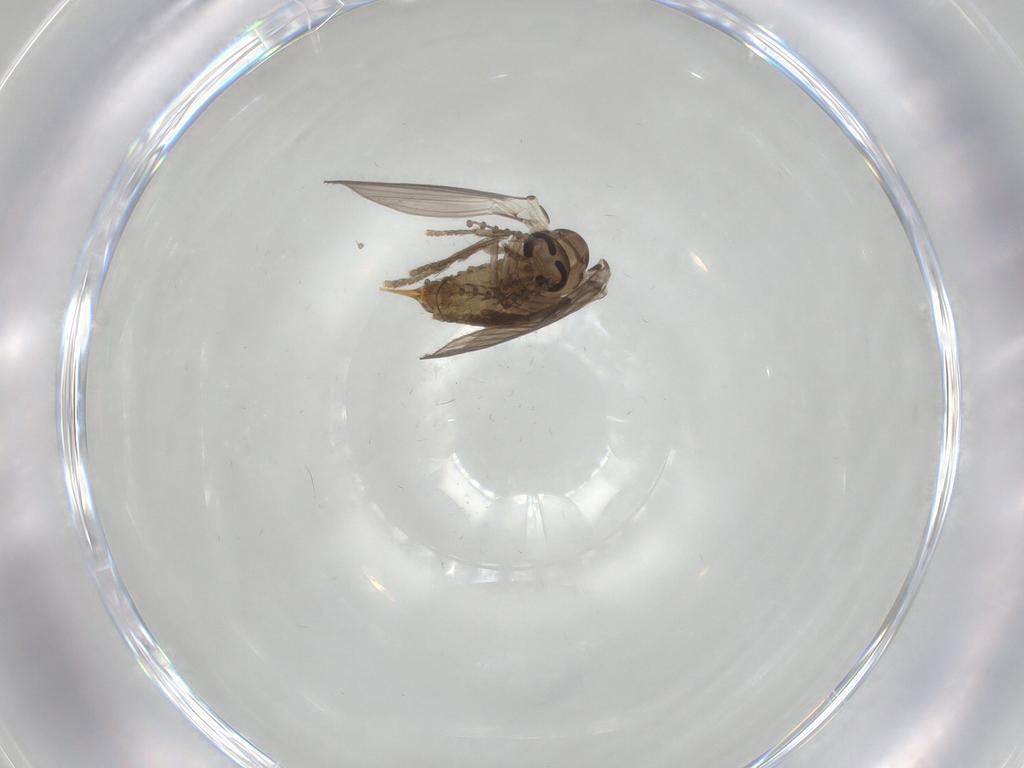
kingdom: Animalia
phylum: Arthropoda
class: Insecta
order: Diptera
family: Psychodidae
